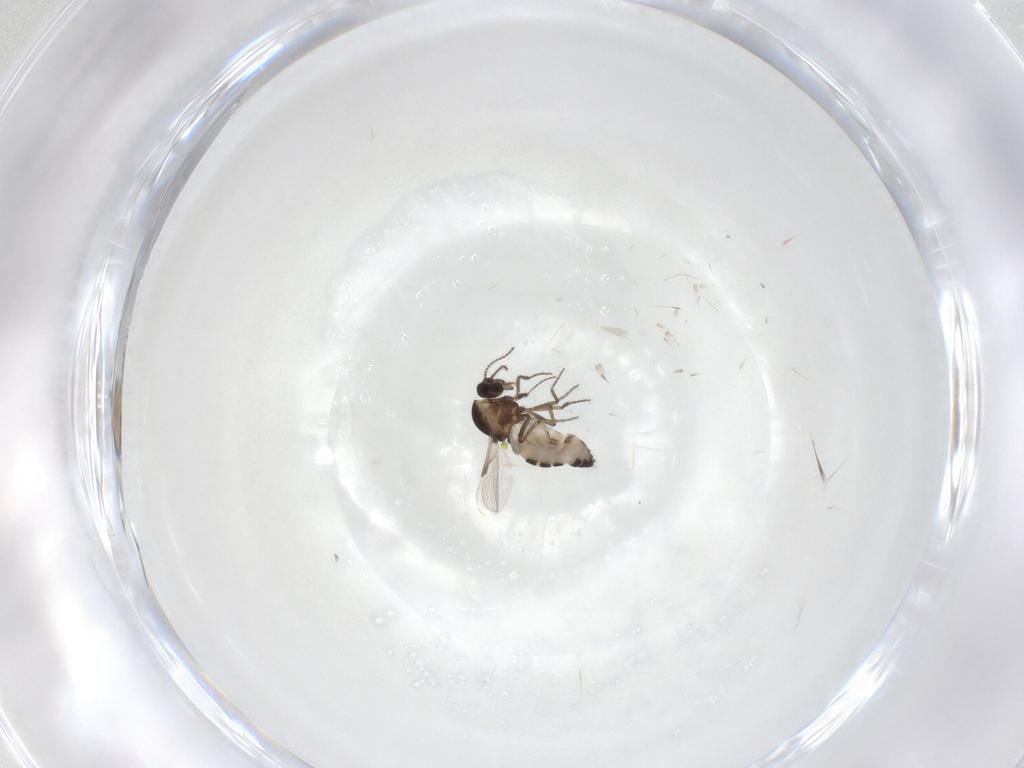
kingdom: Animalia
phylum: Arthropoda
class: Insecta
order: Diptera
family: Ceratopogonidae
